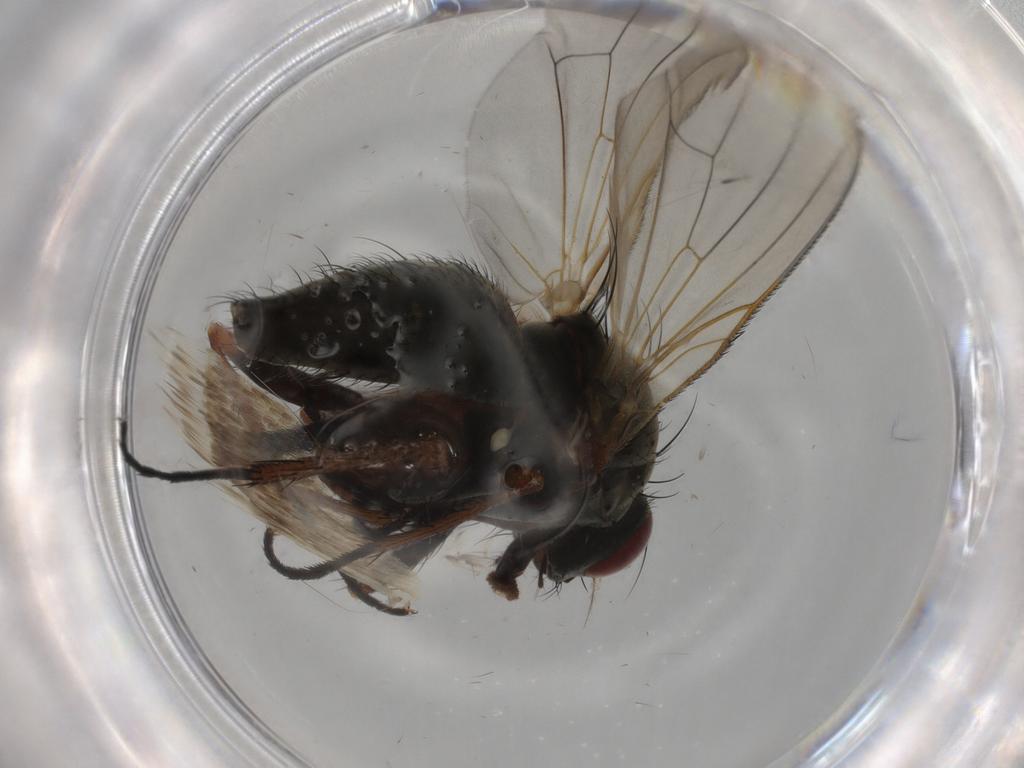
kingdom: Animalia
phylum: Arthropoda
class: Insecta
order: Diptera
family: Anthomyiidae
